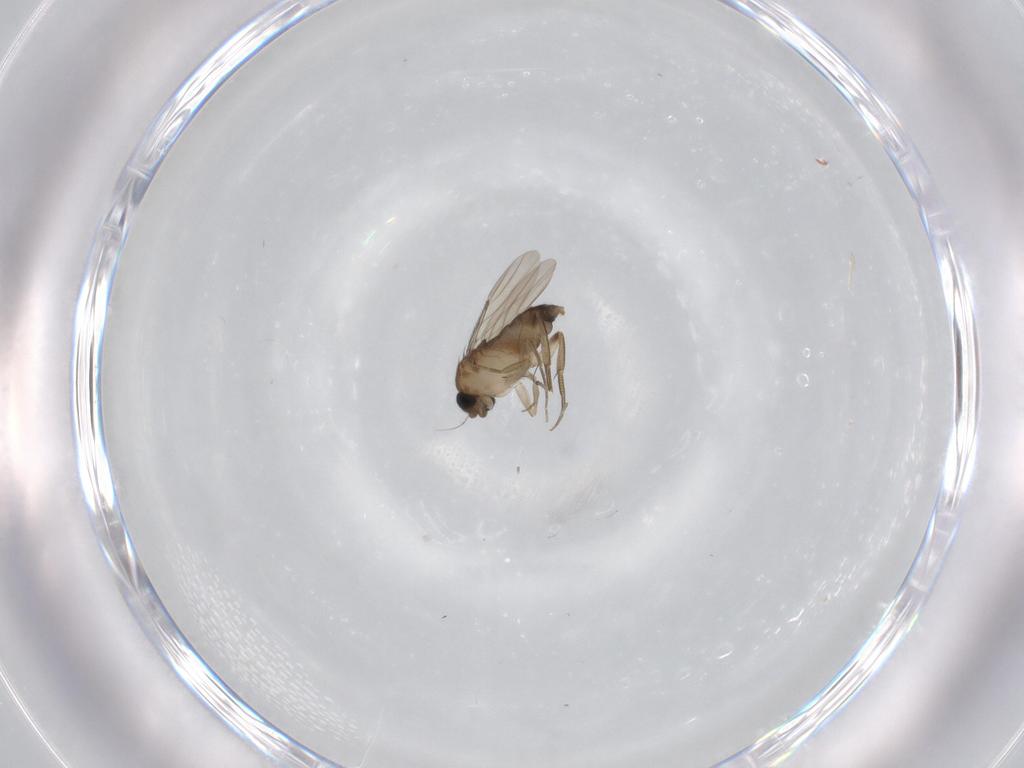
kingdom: Animalia
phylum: Arthropoda
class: Insecta
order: Diptera
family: Phoridae
